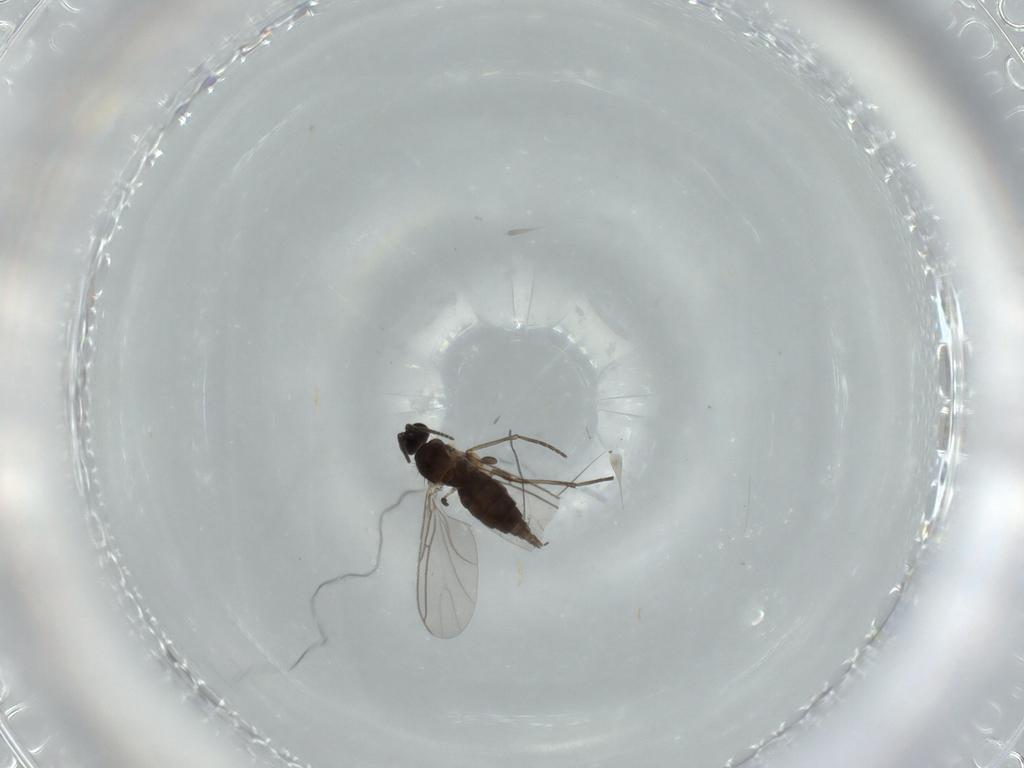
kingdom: Animalia
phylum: Arthropoda
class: Insecta
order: Diptera
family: Sciaridae
